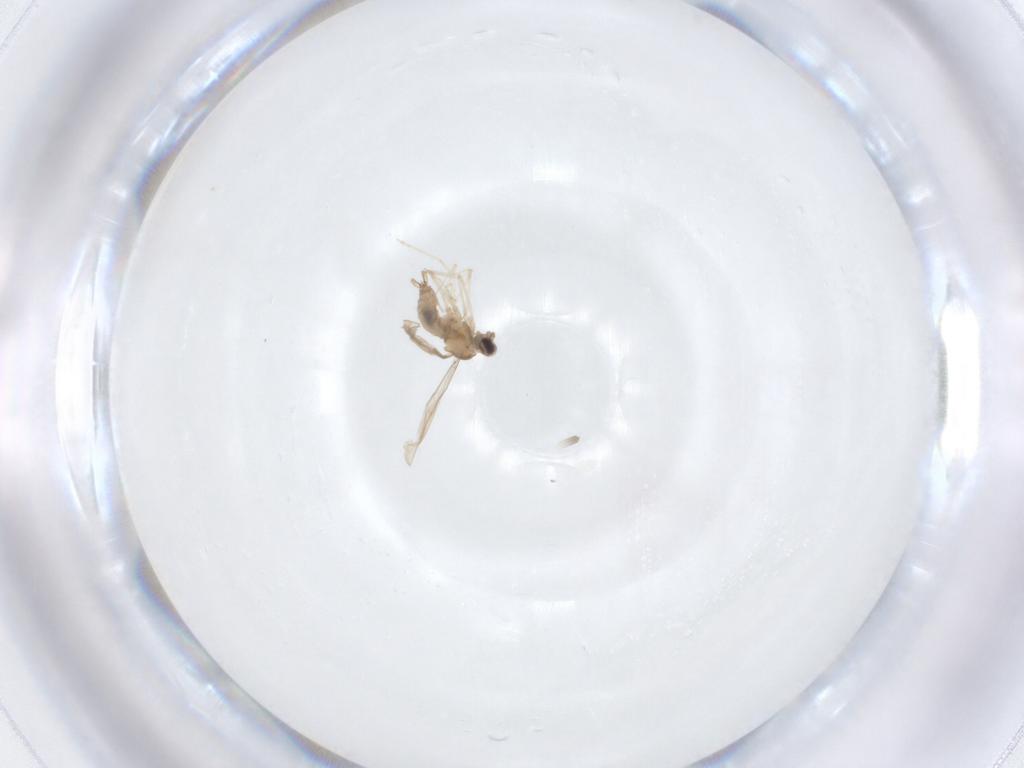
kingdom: Animalia
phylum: Arthropoda
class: Insecta
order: Diptera
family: Cecidomyiidae
